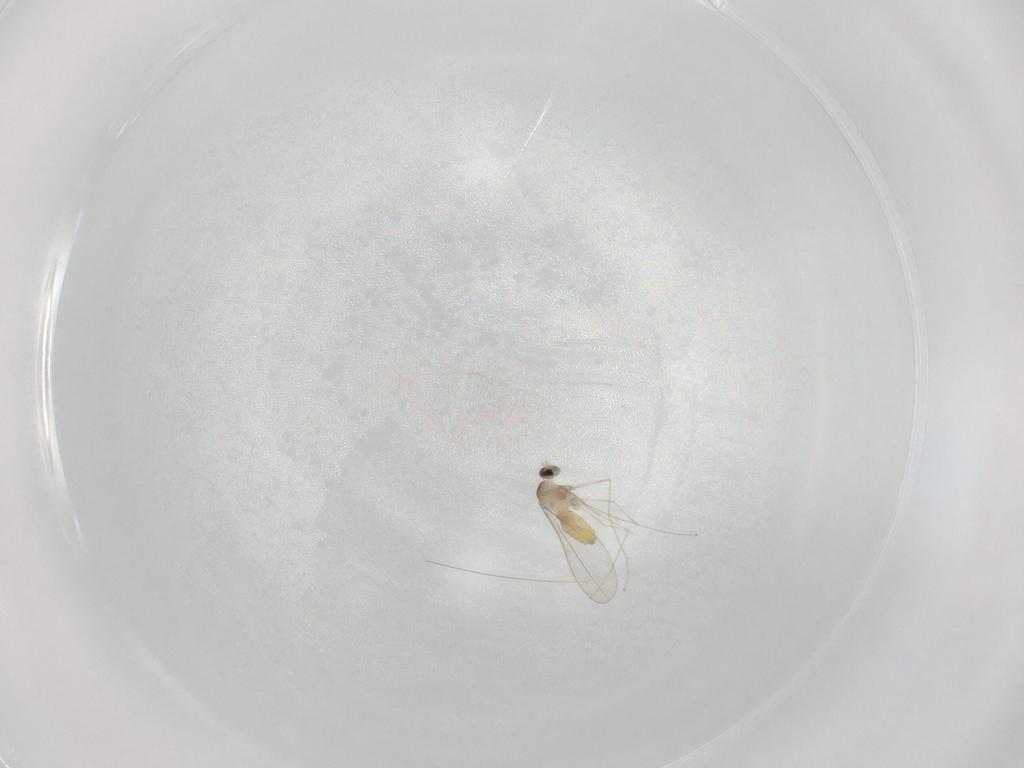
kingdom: Animalia
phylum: Arthropoda
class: Insecta
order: Diptera
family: Cecidomyiidae
